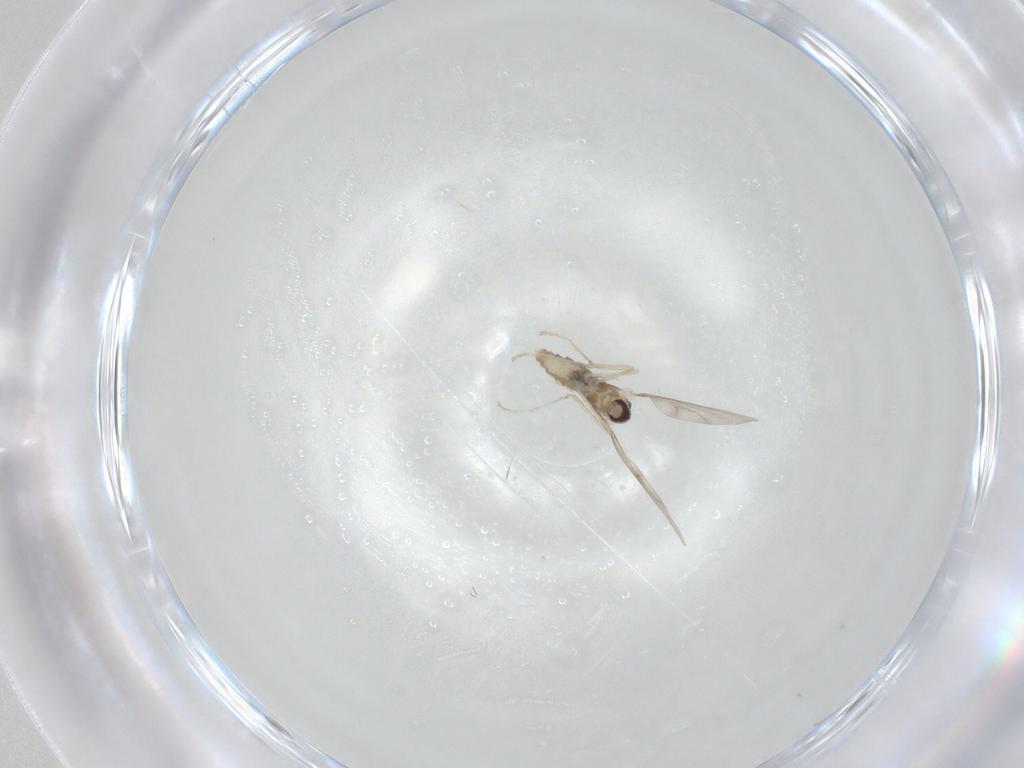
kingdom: Animalia
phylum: Arthropoda
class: Insecta
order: Diptera
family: Cecidomyiidae
